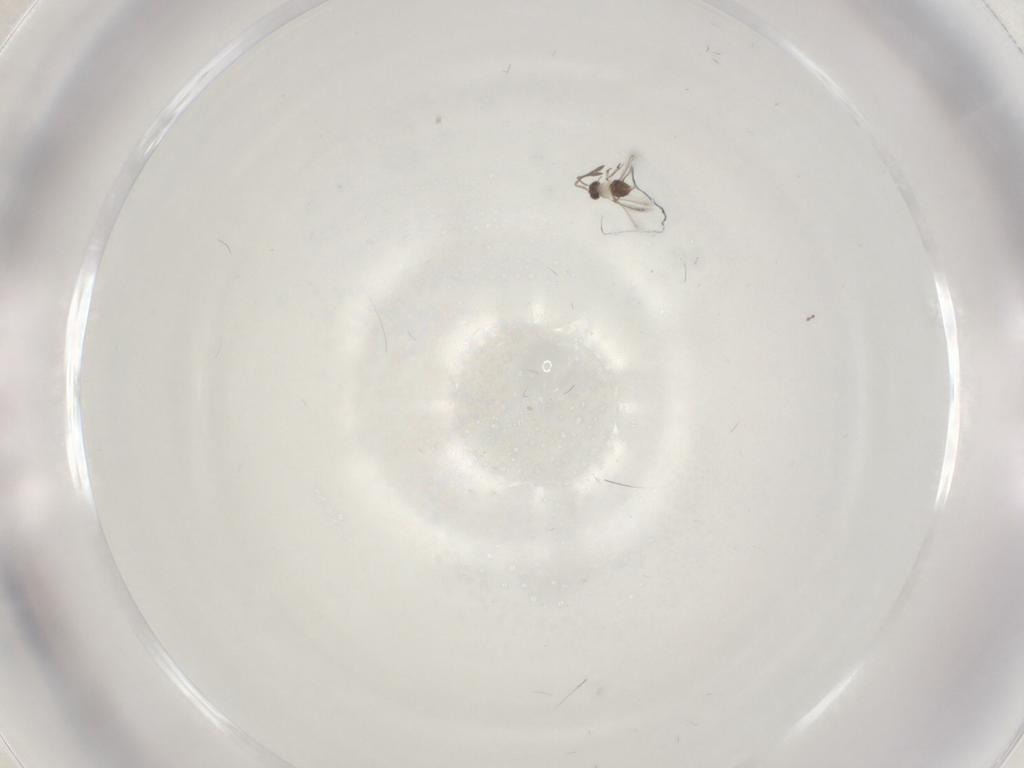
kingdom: Animalia
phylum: Arthropoda
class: Insecta
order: Hymenoptera
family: Mymaridae
